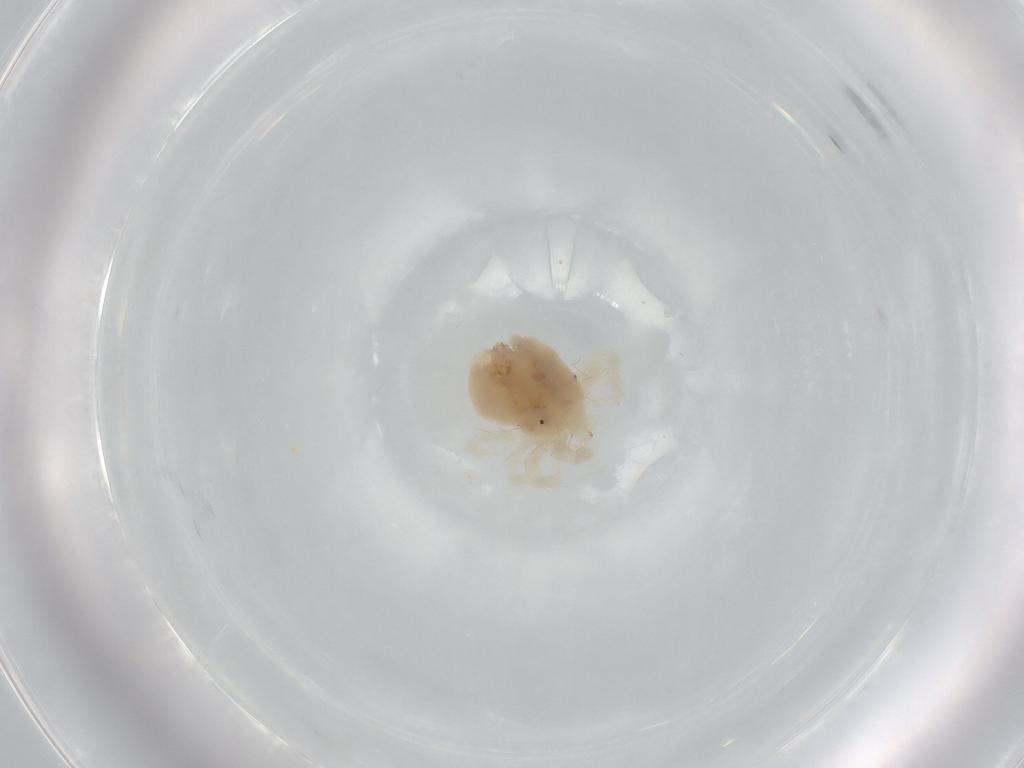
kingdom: Animalia
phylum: Arthropoda
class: Arachnida
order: Trombidiformes
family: Anystidae
